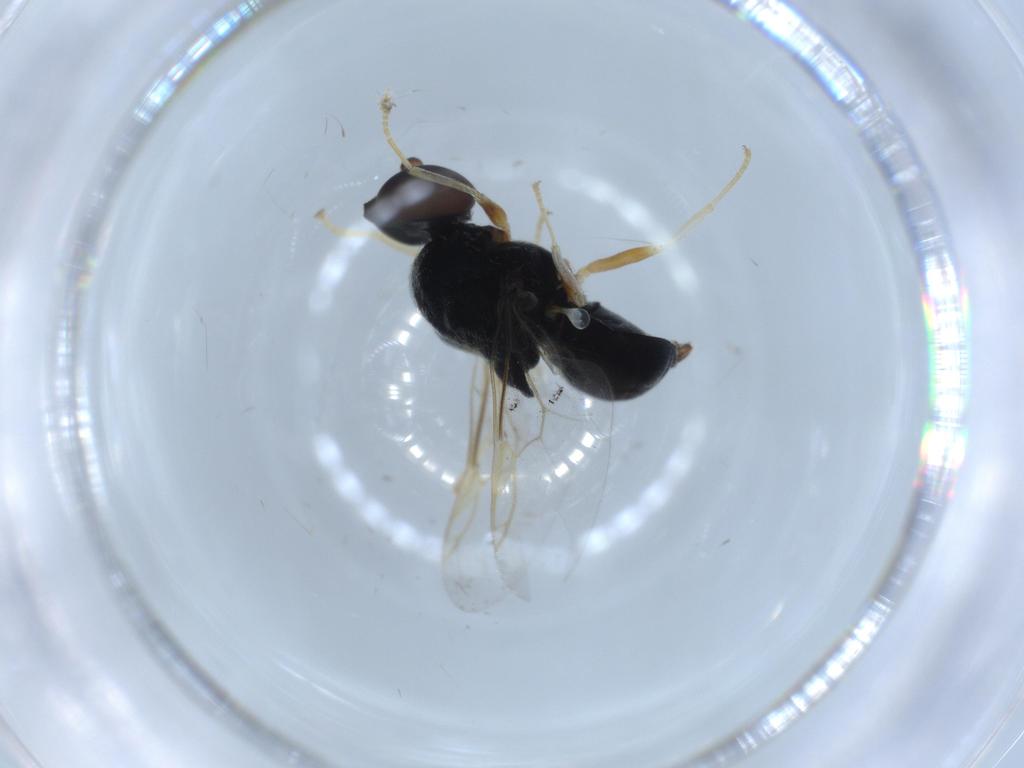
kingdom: Animalia
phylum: Arthropoda
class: Insecta
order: Diptera
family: Stratiomyidae
